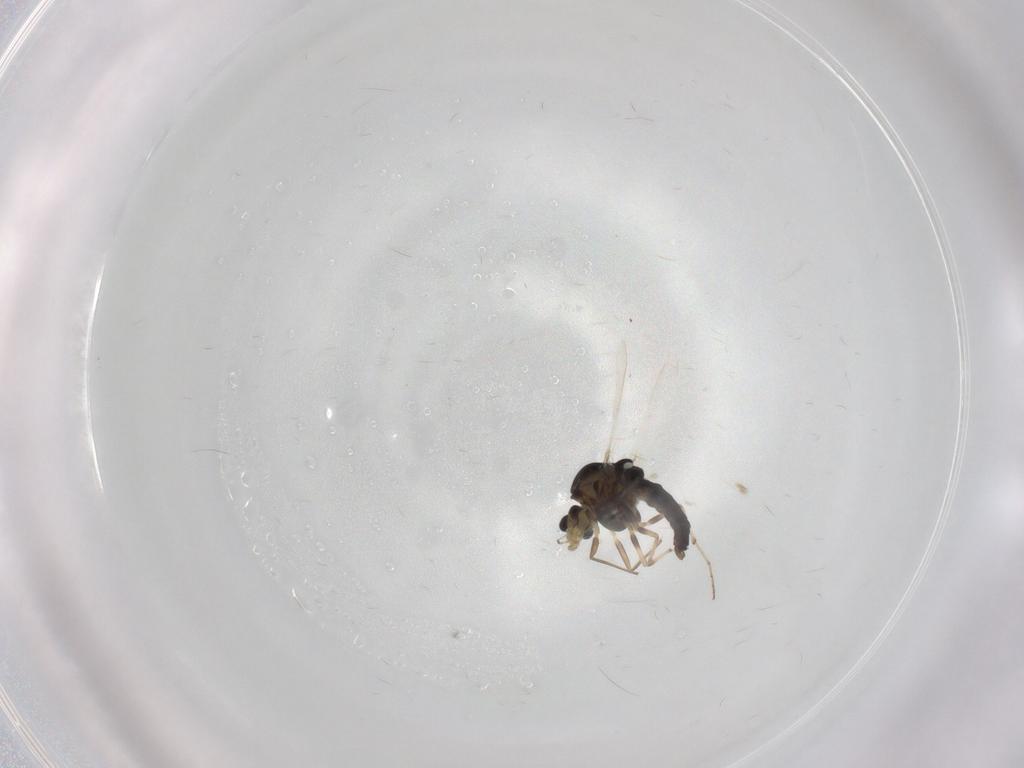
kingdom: Animalia
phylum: Arthropoda
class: Insecta
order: Diptera
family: Chironomidae
